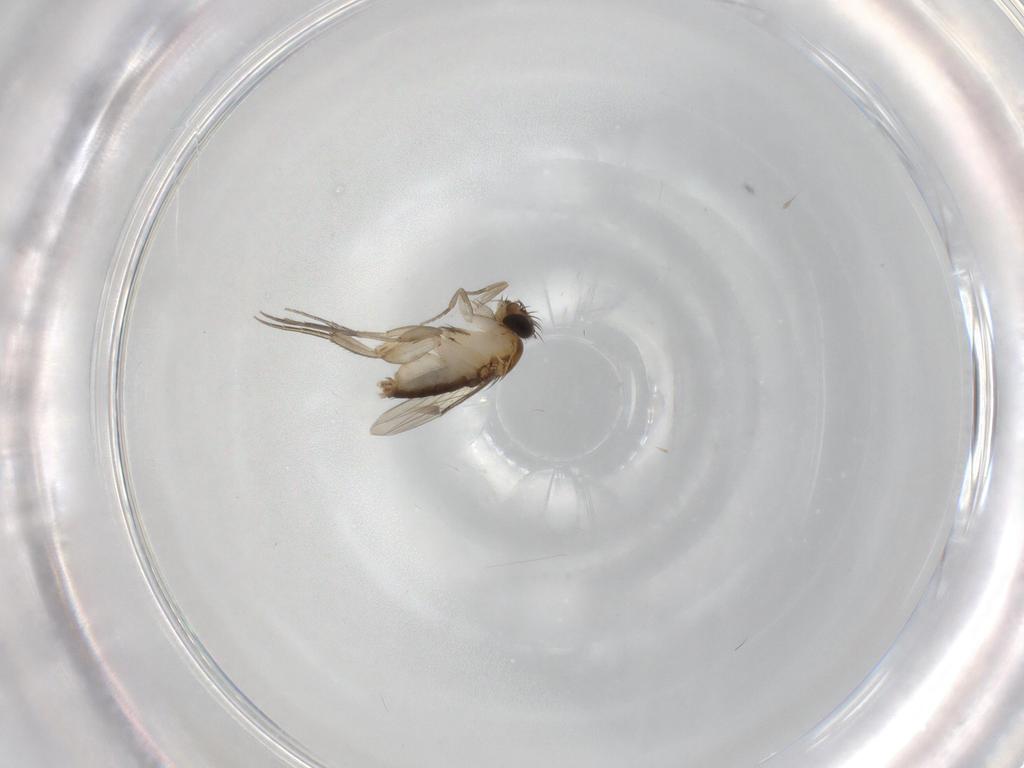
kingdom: Animalia
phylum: Arthropoda
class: Insecta
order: Diptera
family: Phoridae
